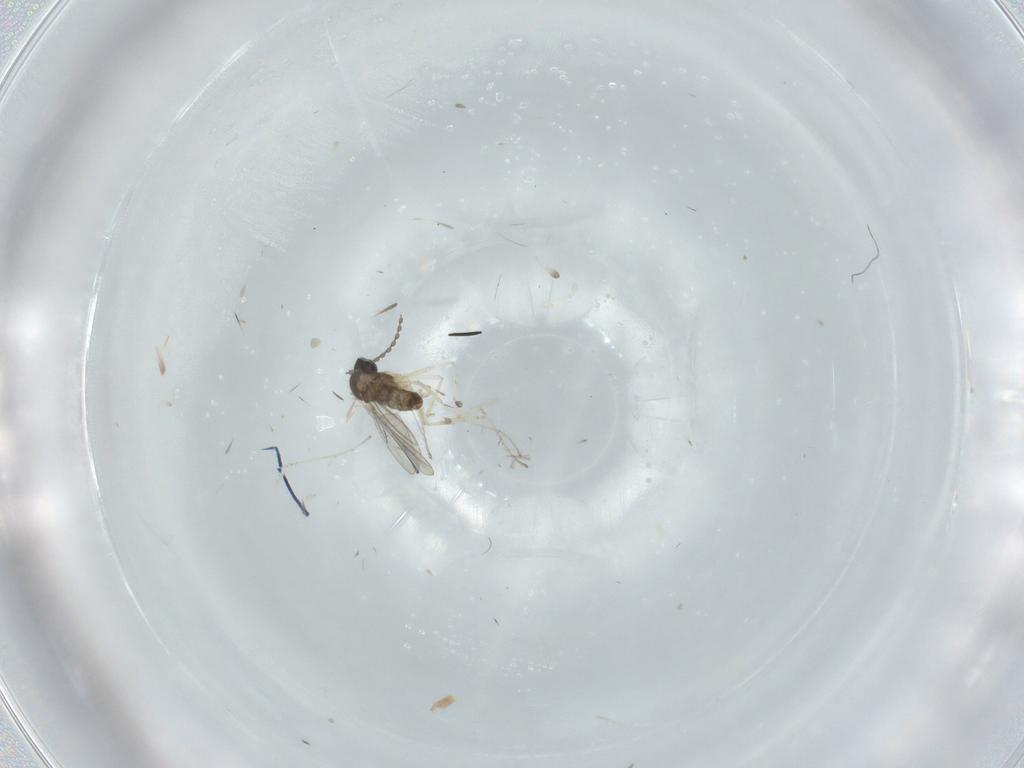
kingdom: Animalia
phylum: Arthropoda
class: Insecta
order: Diptera
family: Cecidomyiidae
